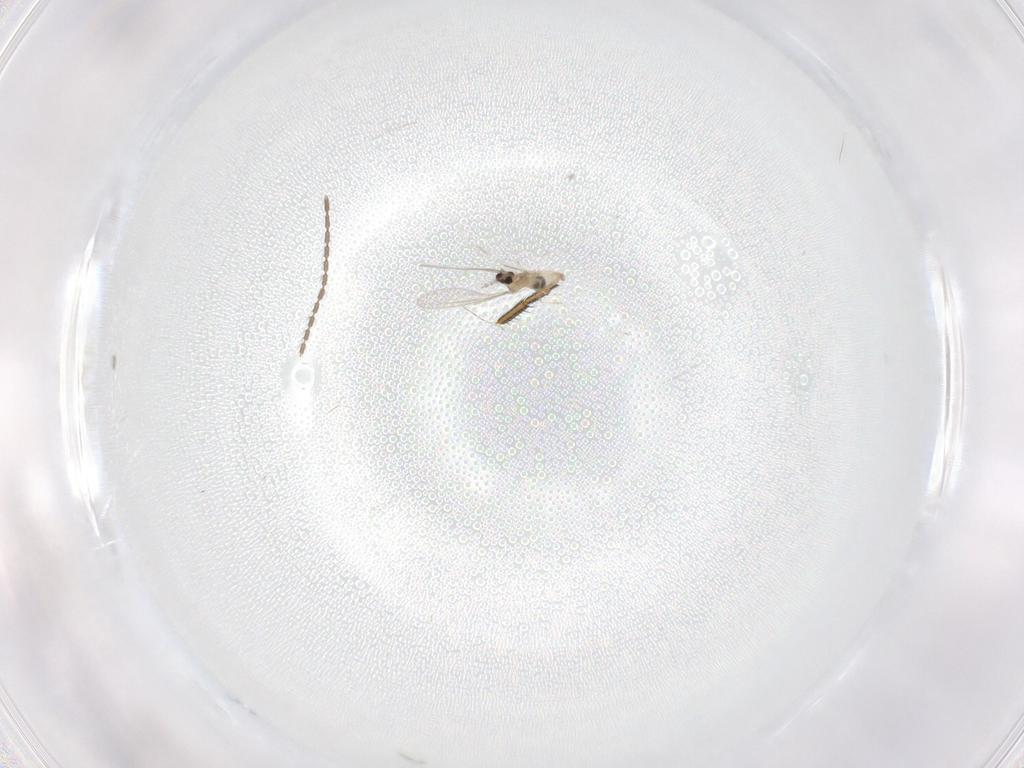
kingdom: Animalia
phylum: Arthropoda
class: Insecta
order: Diptera
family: Cecidomyiidae
